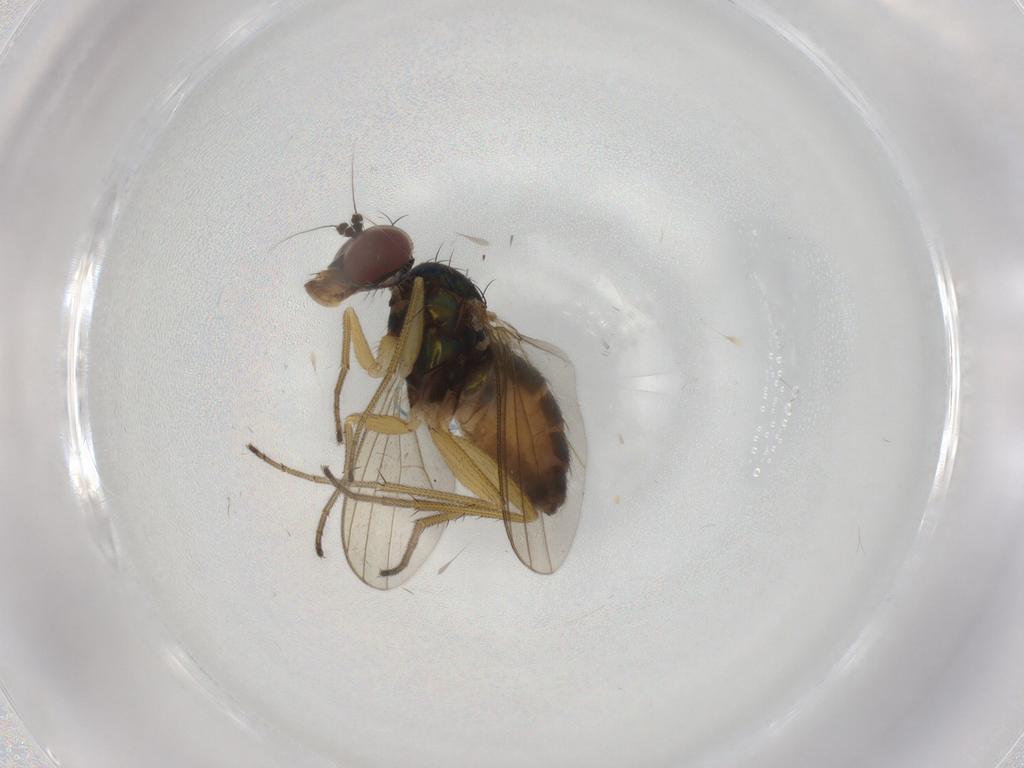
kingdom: Animalia
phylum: Arthropoda
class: Insecta
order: Diptera
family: Dolichopodidae
